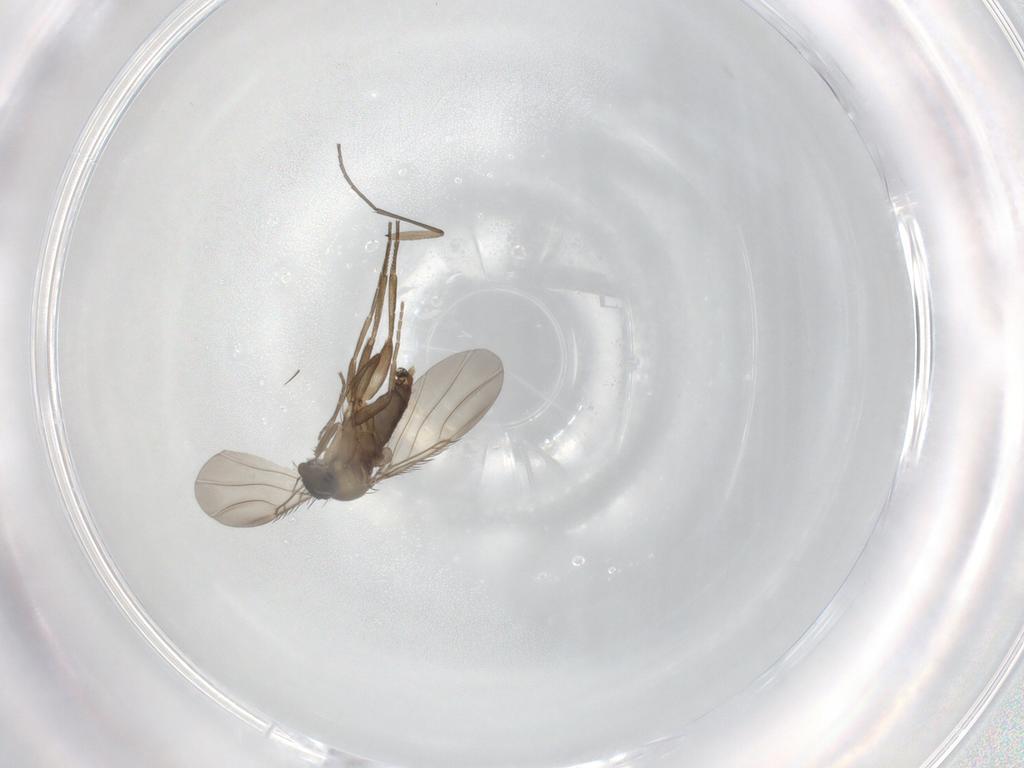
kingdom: Animalia
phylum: Arthropoda
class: Insecta
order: Diptera
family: Phoridae
